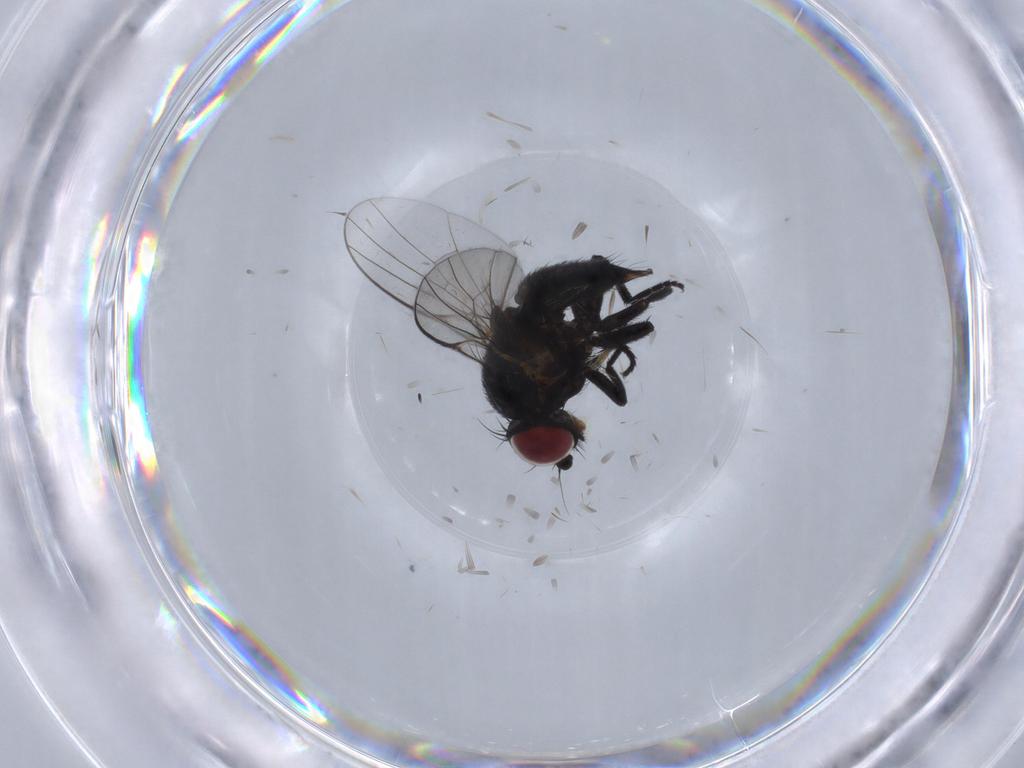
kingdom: Animalia
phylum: Arthropoda
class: Insecta
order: Diptera
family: Agromyzidae
